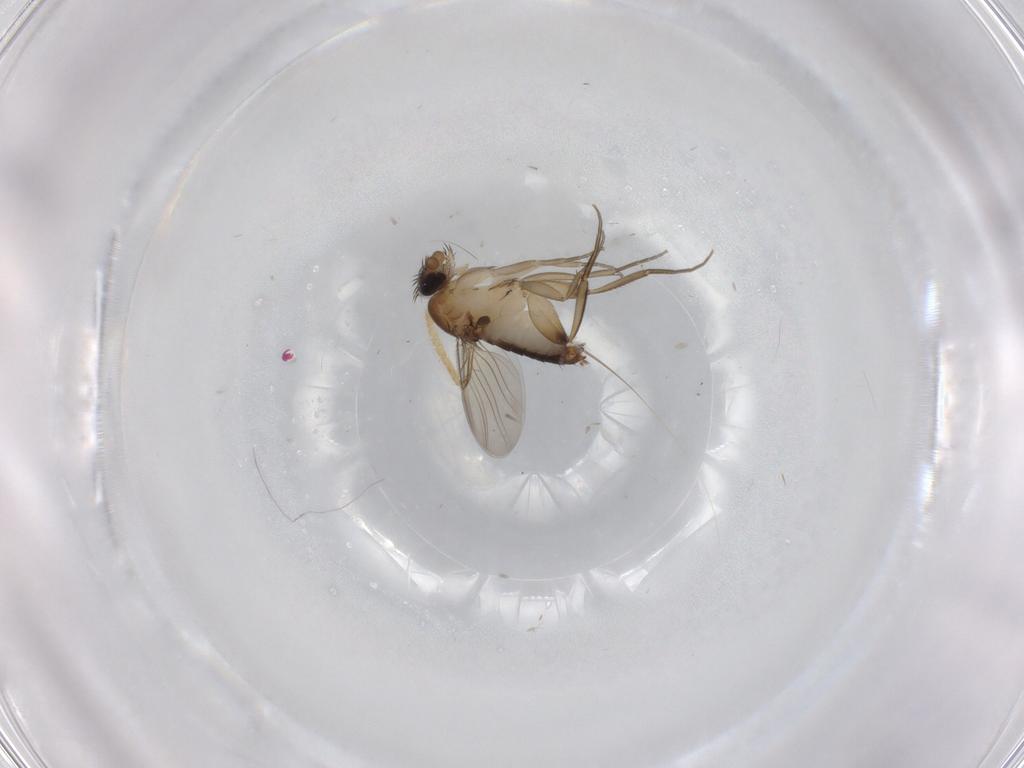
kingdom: Animalia
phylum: Arthropoda
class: Insecta
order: Diptera
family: Phoridae
